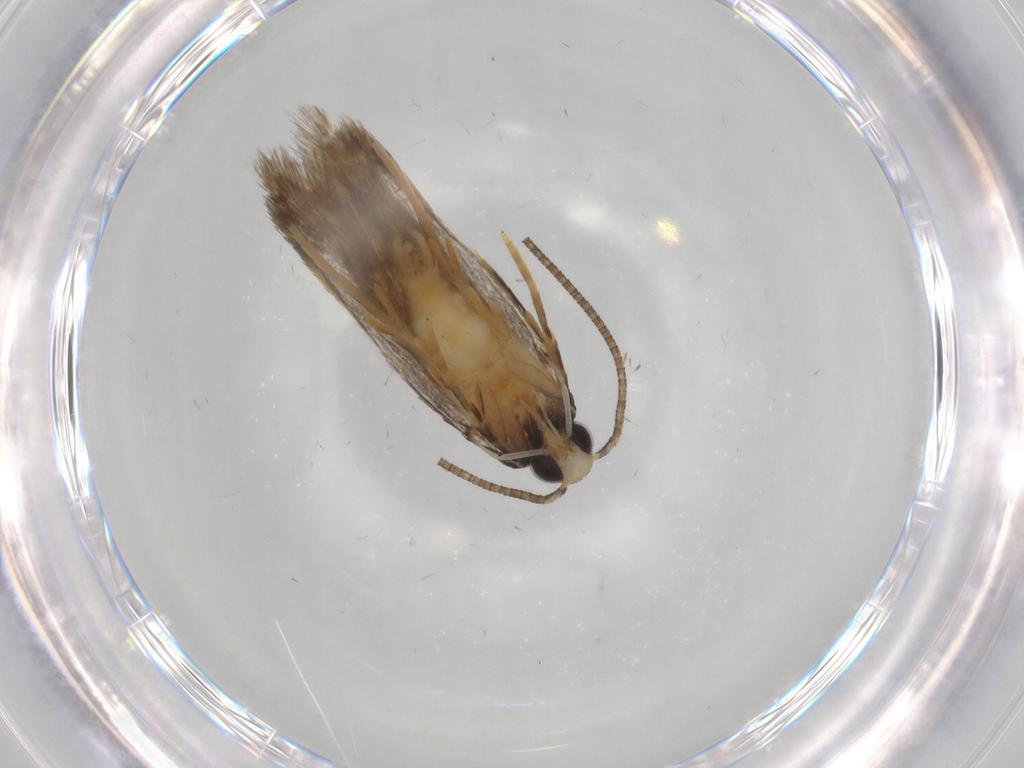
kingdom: Animalia
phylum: Arthropoda
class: Insecta
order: Lepidoptera
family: Autostichidae
